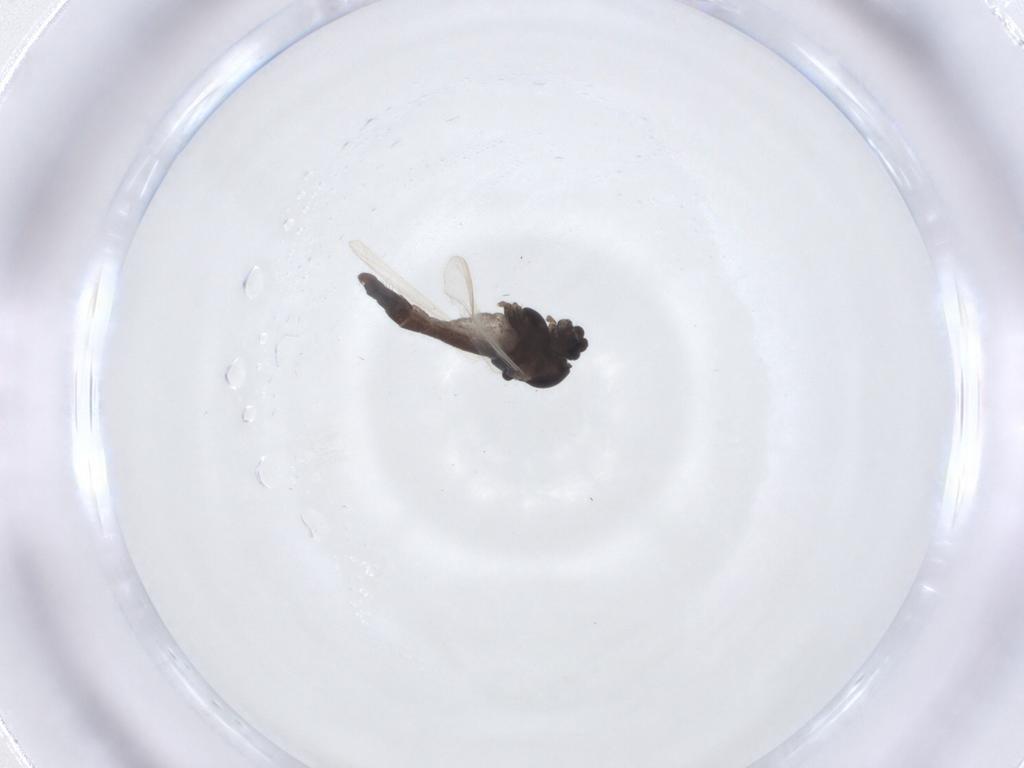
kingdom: Animalia
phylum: Arthropoda
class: Insecta
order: Diptera
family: Chironomidae
